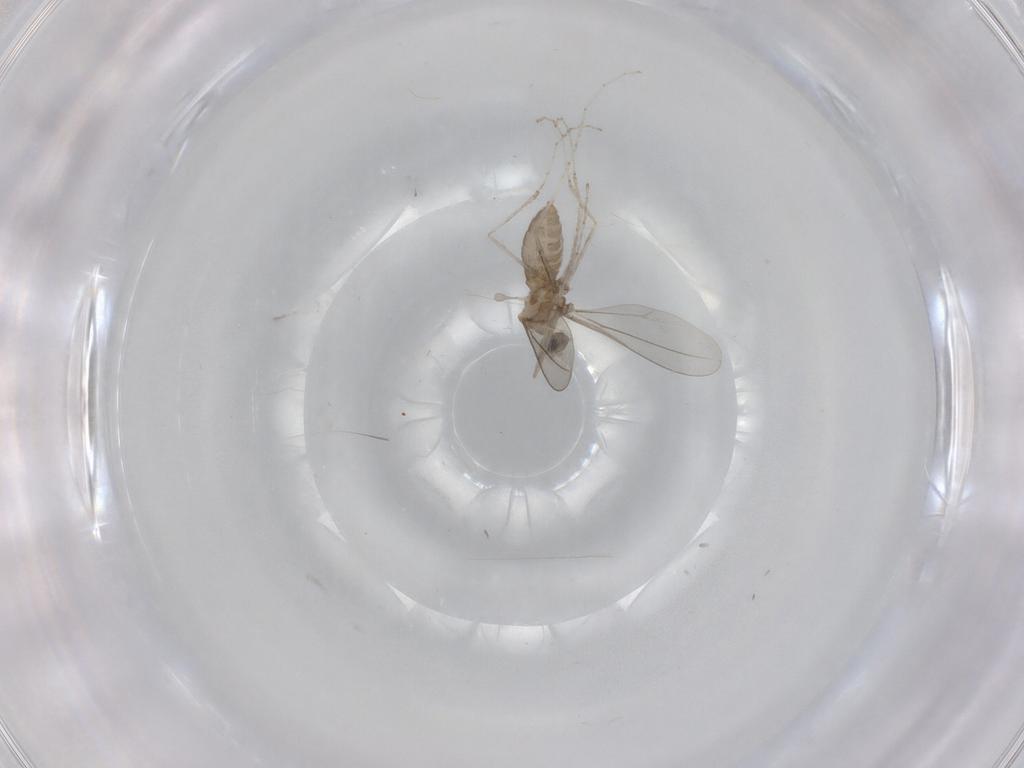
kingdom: Animalia
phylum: Arthropoda
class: Insecta
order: Diptera
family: Cecidomyiidae
